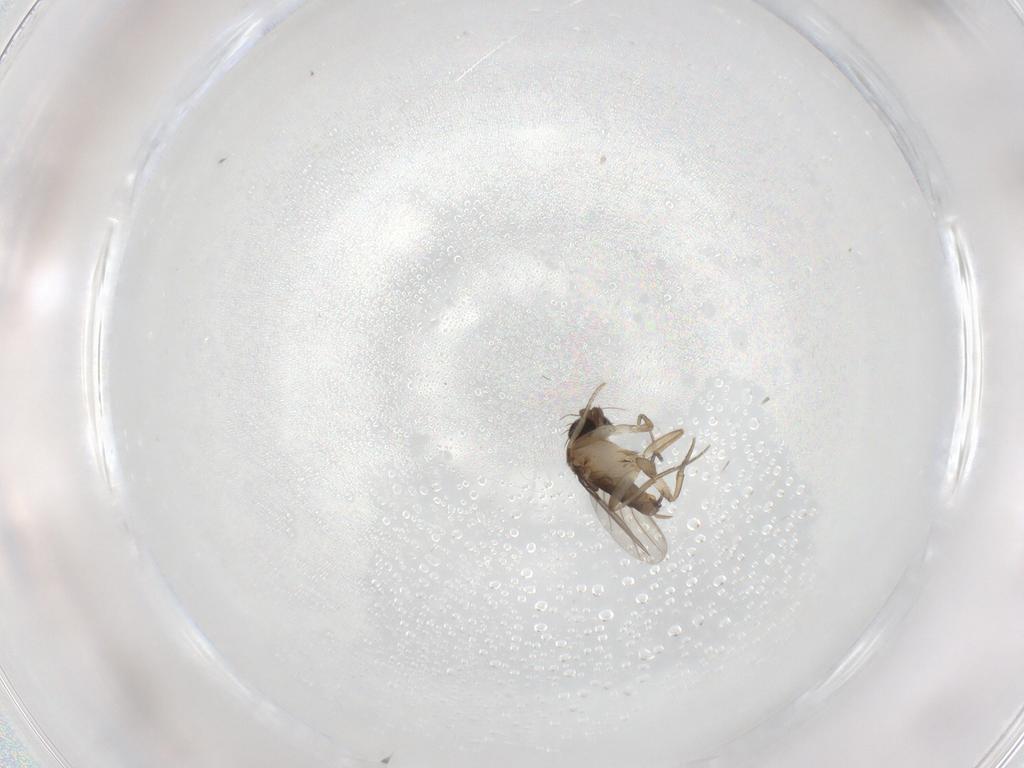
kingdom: Animalia
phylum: Arthropoda
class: Insecta
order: Diptera
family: Phoridae
